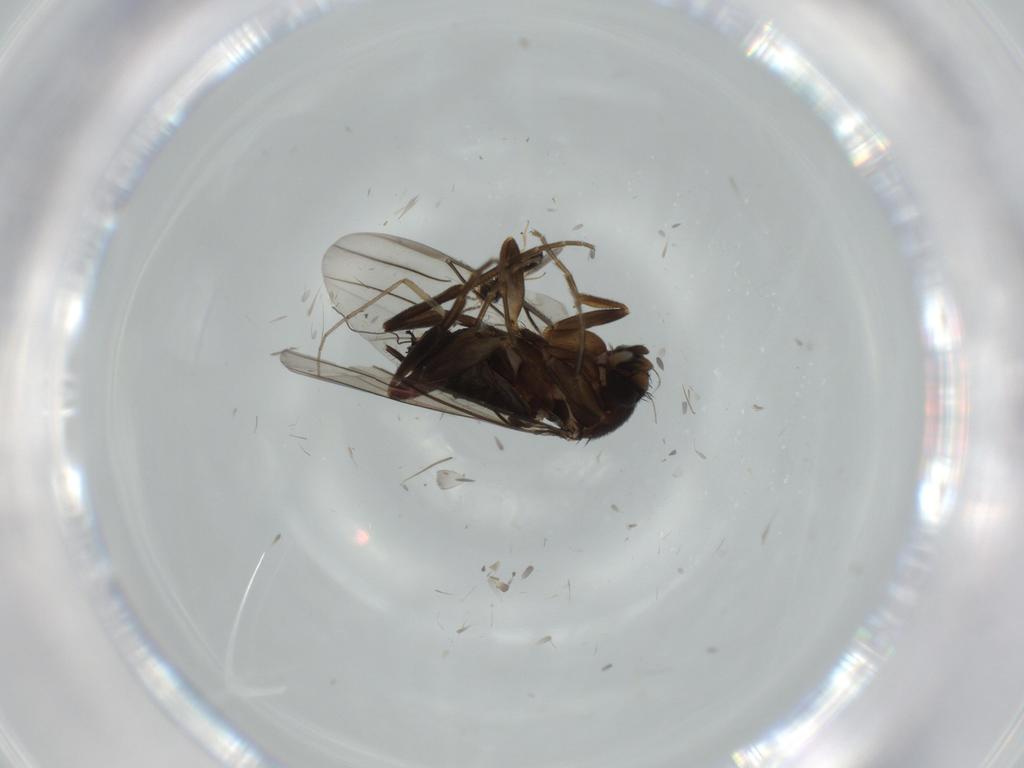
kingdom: Animalia
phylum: Arthropoda
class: Insecta
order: Diptera
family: Chironomidae
